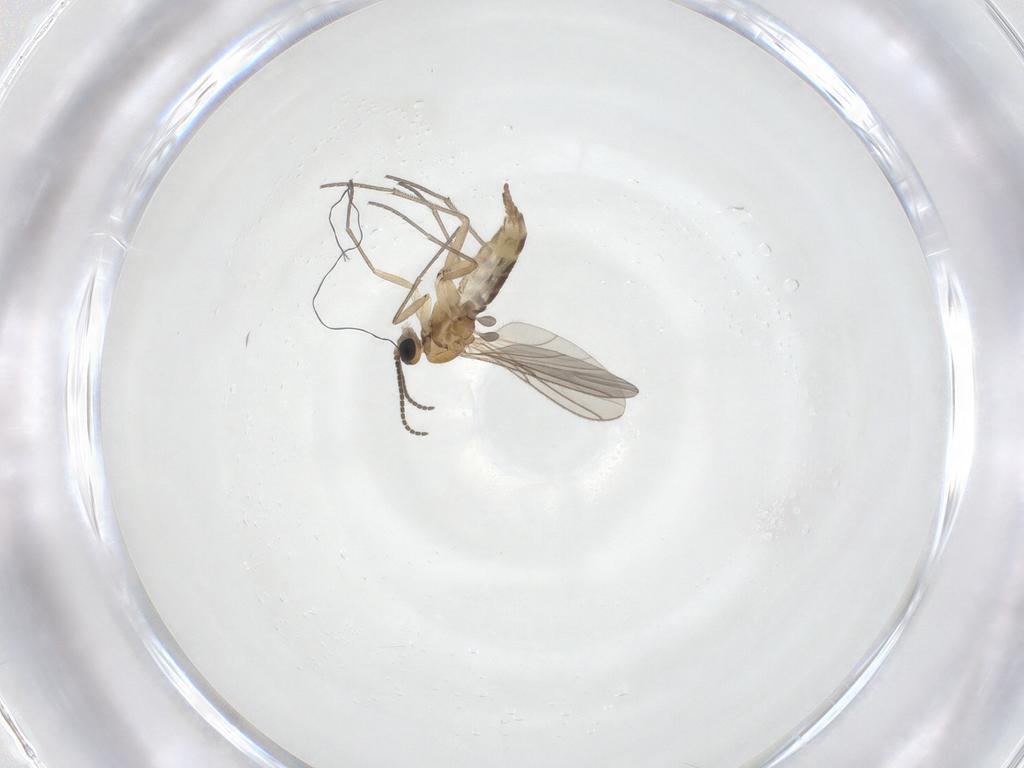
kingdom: Animalia
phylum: Arthropoda
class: Insecta
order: Diptera
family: Sciaridae
